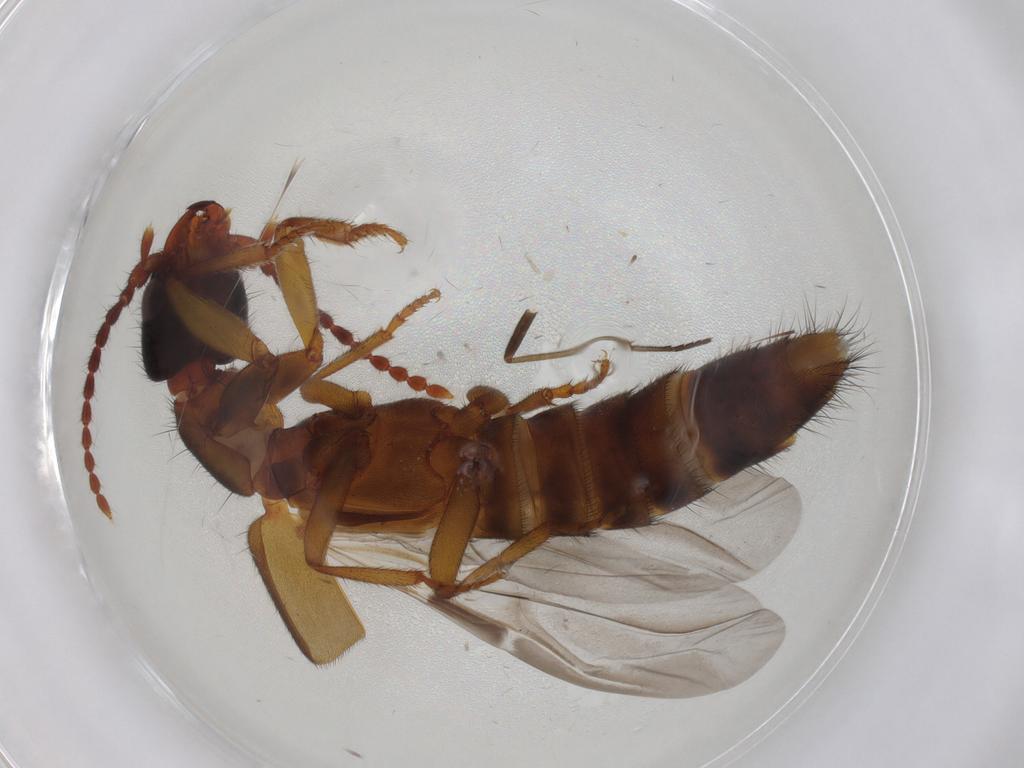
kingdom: Animalia
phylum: Arthropoda
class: Insecta
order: Coleoptera
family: Staphylinidae
